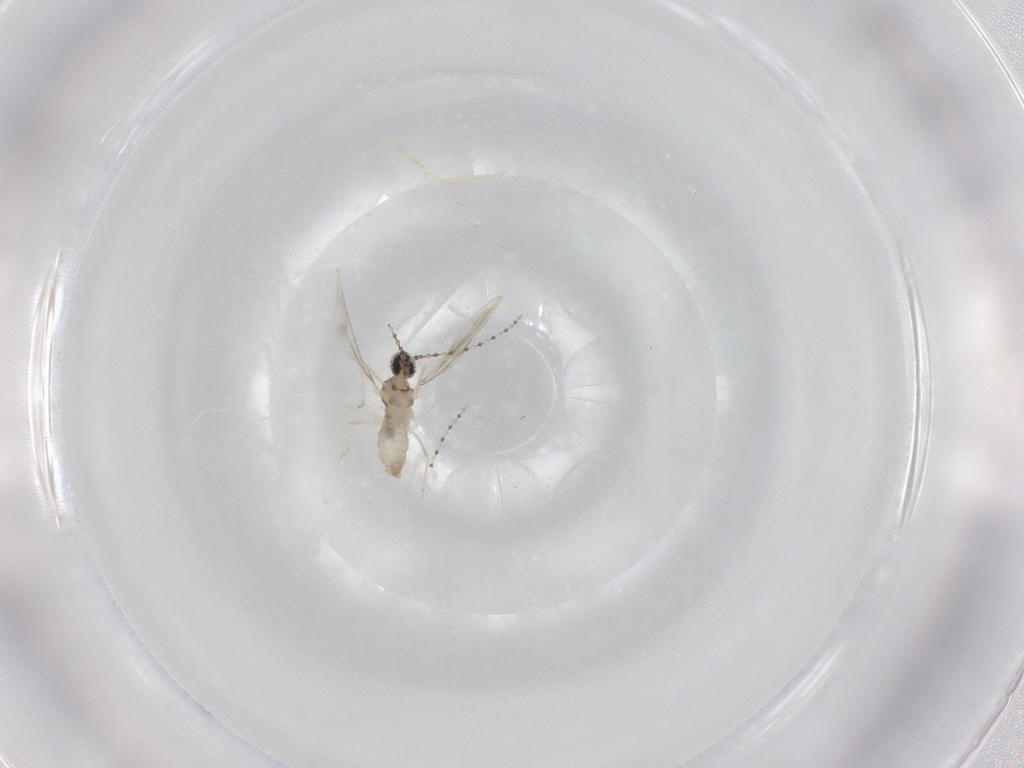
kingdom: Animalia
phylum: Arthropoda
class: Insecta
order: Diptera
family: Cecidomyiidae
